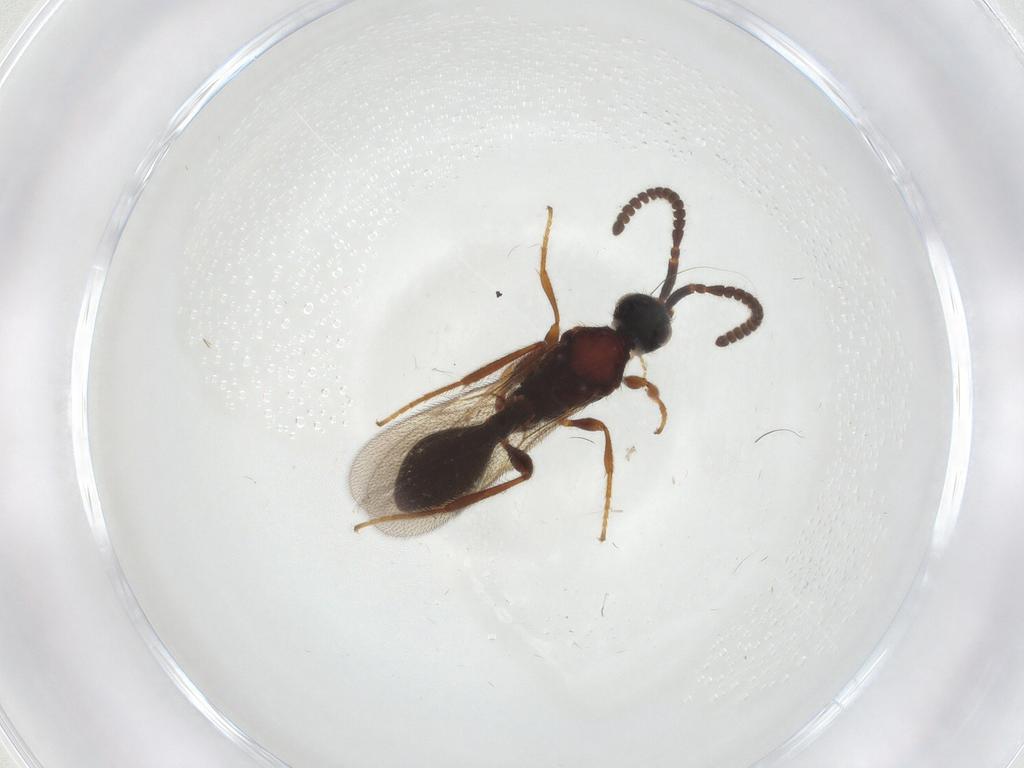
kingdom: Animalia
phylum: Arthropoda
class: Insecta
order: Hymenoptera
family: Diapriidae
